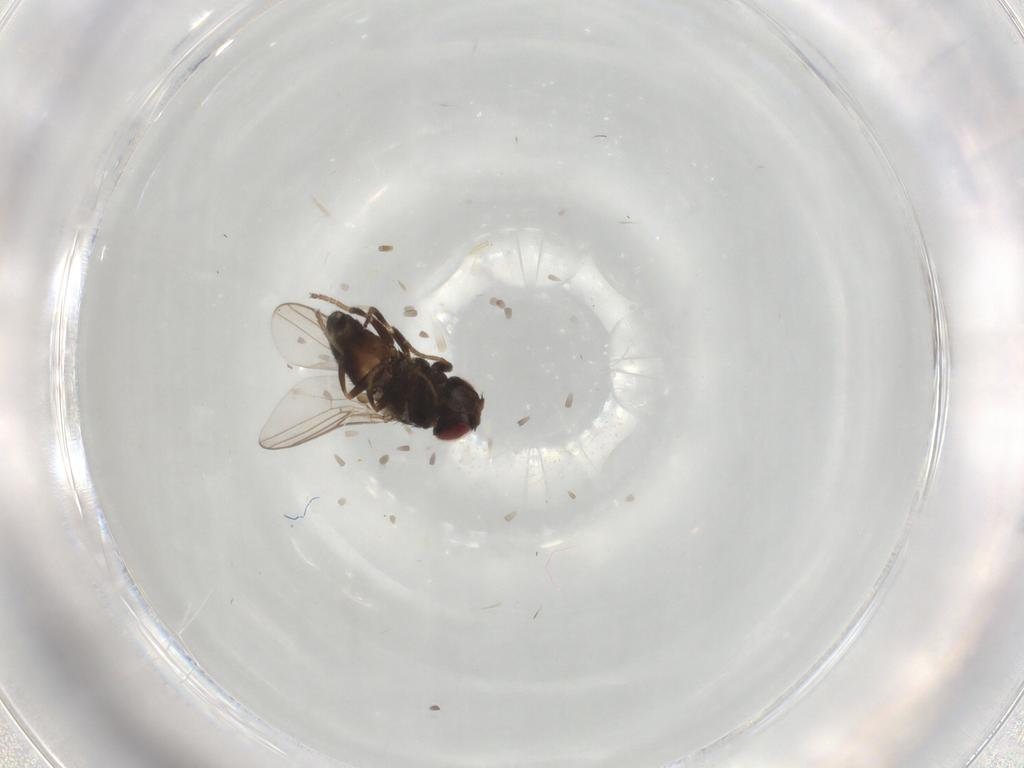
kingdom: Animalia
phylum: Arthropoda
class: Insecta
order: Diptera
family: Chloropidae
